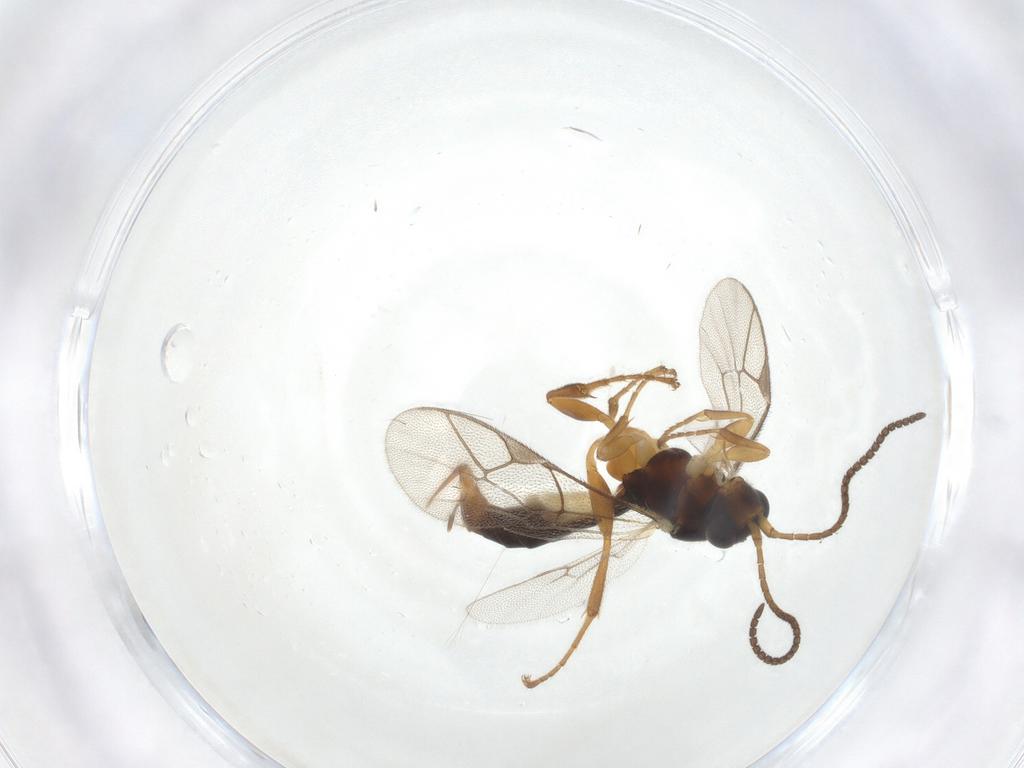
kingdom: Animalia
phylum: Arthropoda
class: Insecta
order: Hymenoptera
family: Ichneumonidae
